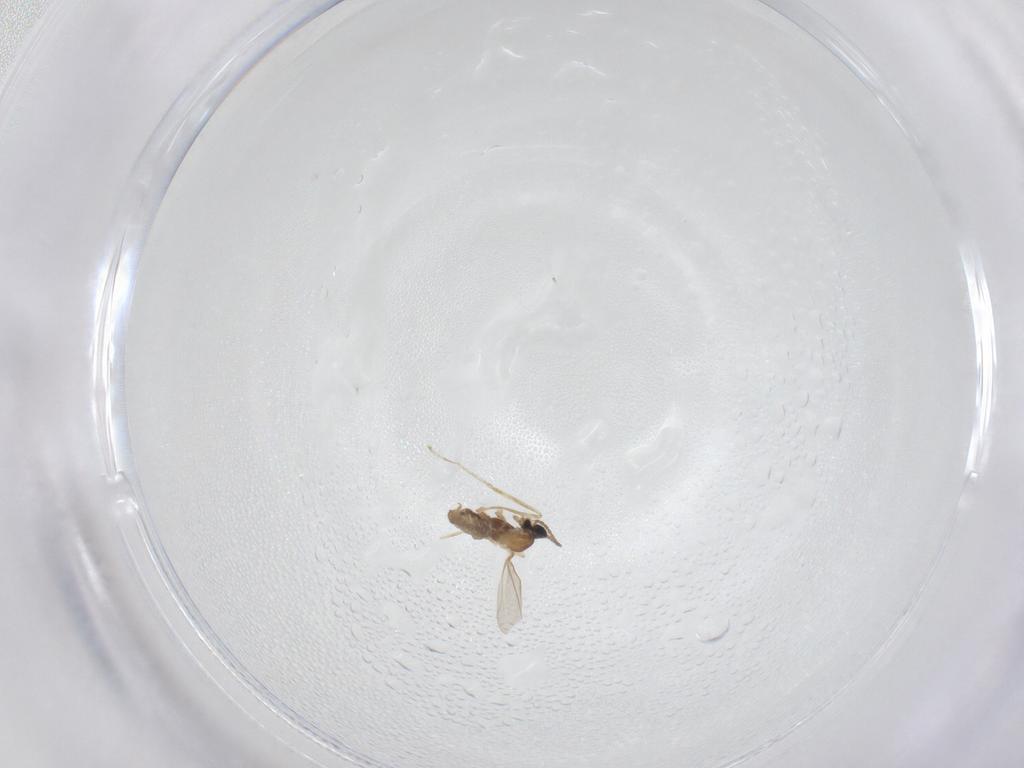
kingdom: Animalia
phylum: Arthropoda
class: Insecta
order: Diptera
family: Cecidomyiidae
